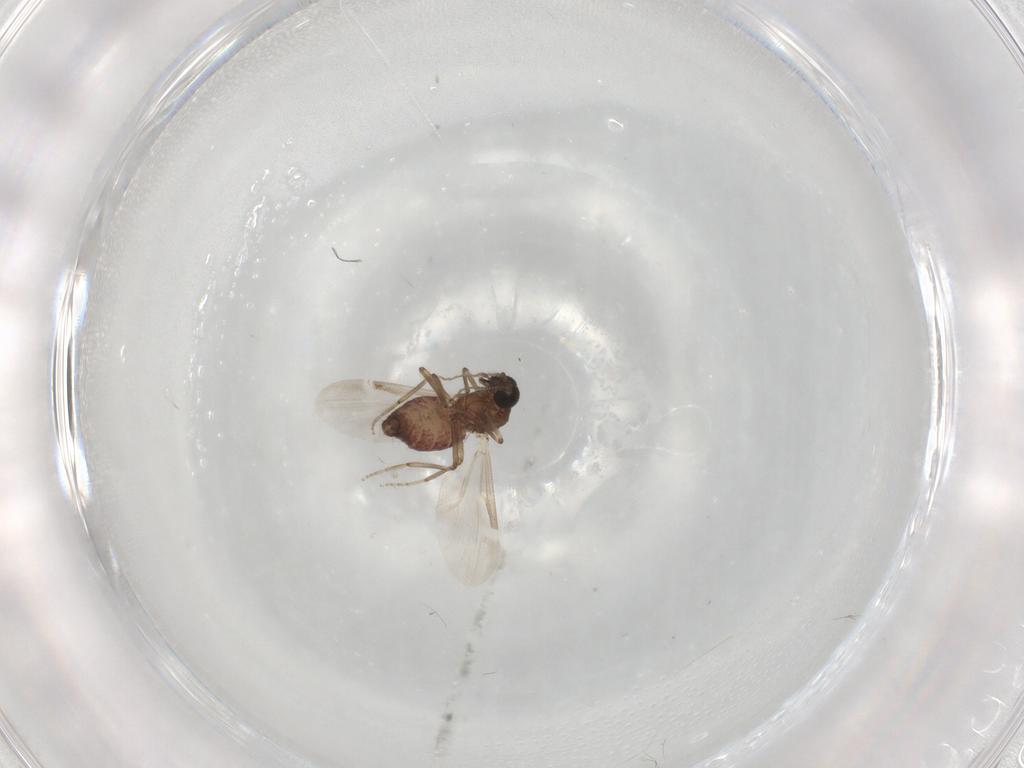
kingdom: Animalia
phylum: Arthropoda
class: Insecta
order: Diptera
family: Ceratopogonidae
